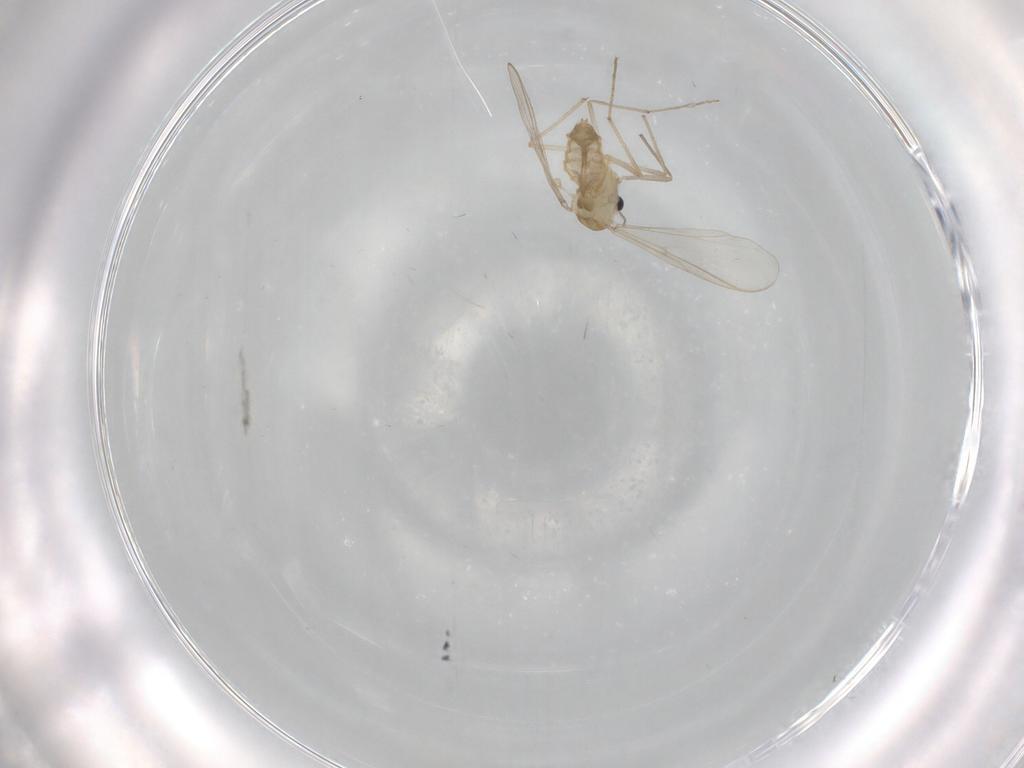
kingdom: Animalia
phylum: Arthropoda
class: Insecta
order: Diptera
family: Chironomidae
